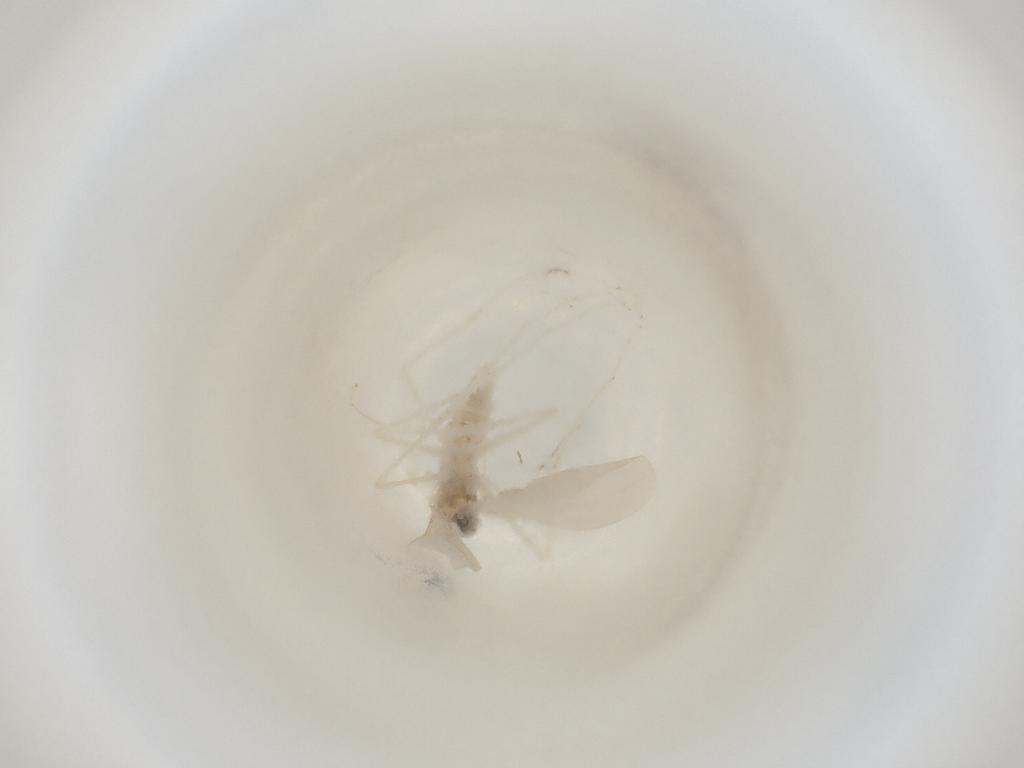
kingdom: Animalia
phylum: Arthropoda
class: Insecta
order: Diptera
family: Cecidomyiidae
